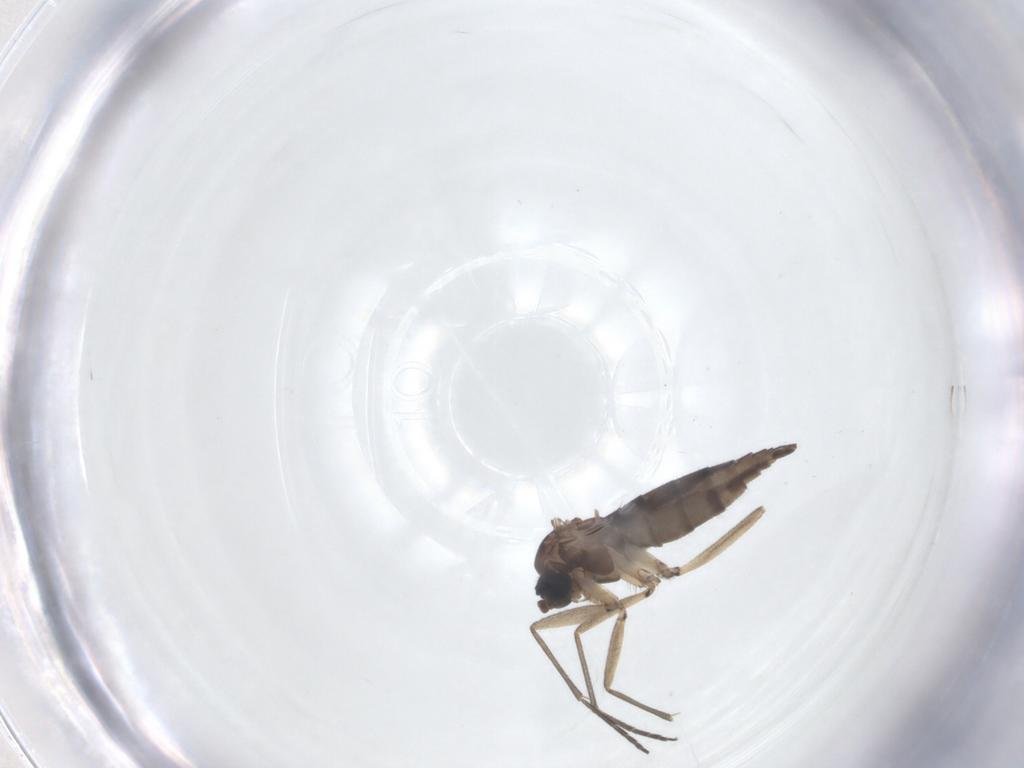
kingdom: Animalia
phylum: Arthropoda
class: Insecta
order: Diptera
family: Sciaridae
